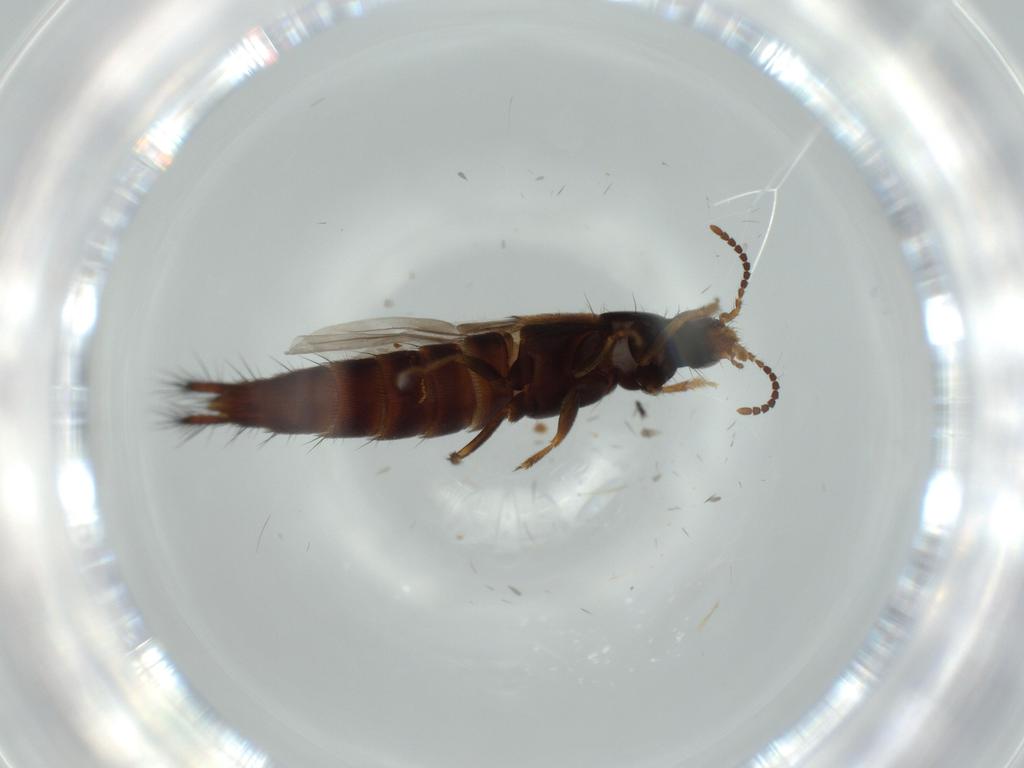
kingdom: Animalia
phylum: Arthropoda
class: Insecta
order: Coleoptera
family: Staphylinidae
